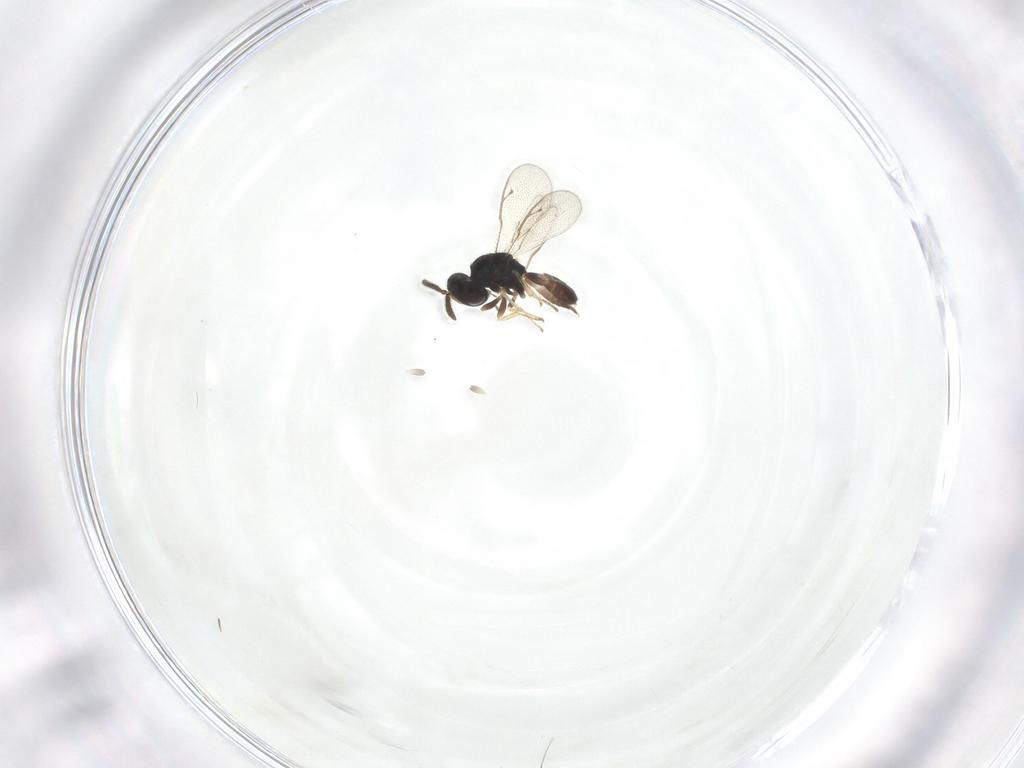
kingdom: Animalia
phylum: Arthropoda
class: Insecta
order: Hymenoptera
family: Pteromalidae
